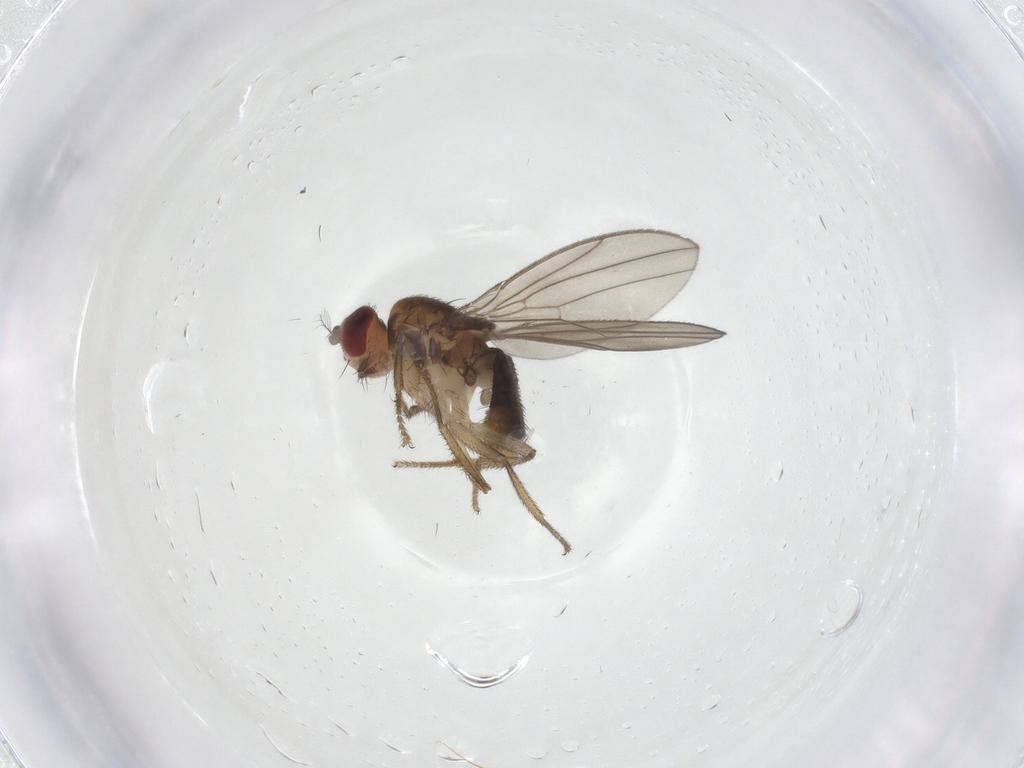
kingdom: Animalia
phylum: Arthropoda
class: Insecta
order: Diptera
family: Drosophilidae
